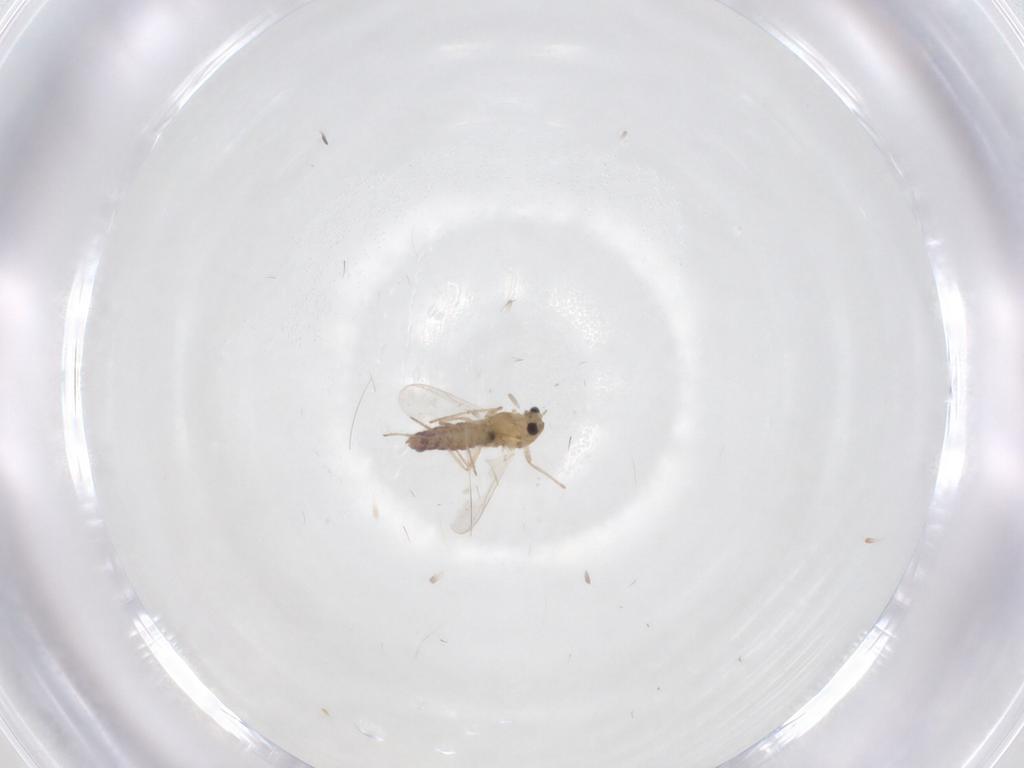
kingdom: Animalia
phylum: Arthropoda
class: Insecta
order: Diptera
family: Chironomidae
